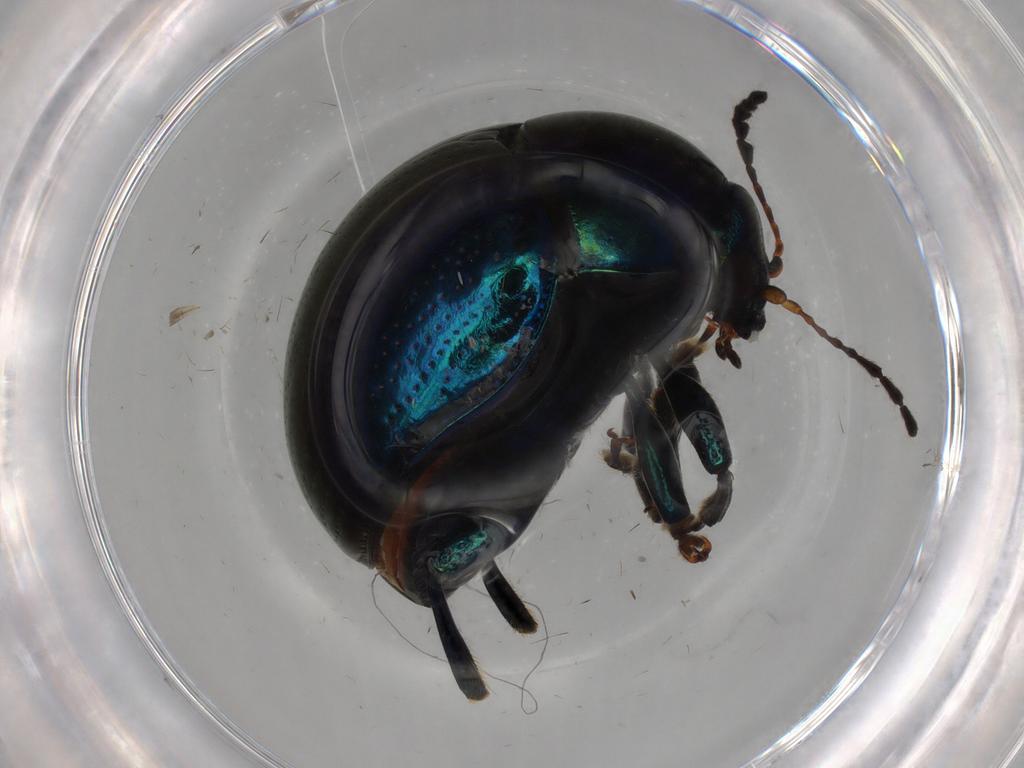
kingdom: Animalia
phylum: Arthropoda
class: Insecta
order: Coleoptera
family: Chrysomelidae
